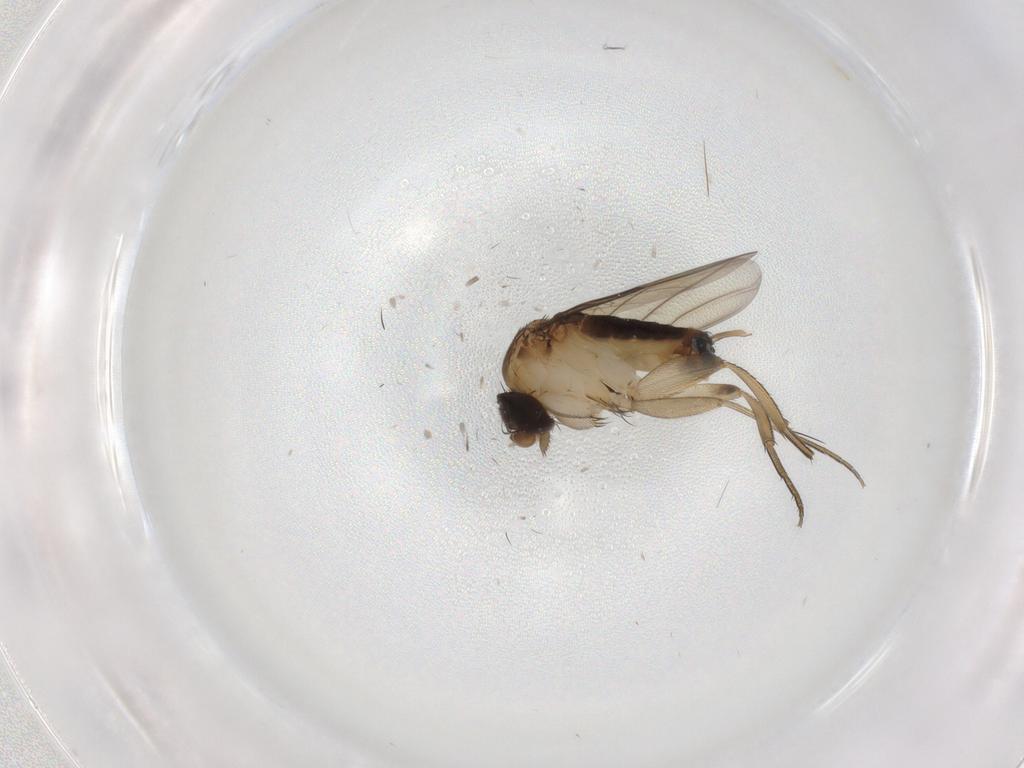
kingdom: Animalia
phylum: Arthropoda
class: Insecta
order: Diptera
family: Phoridae
